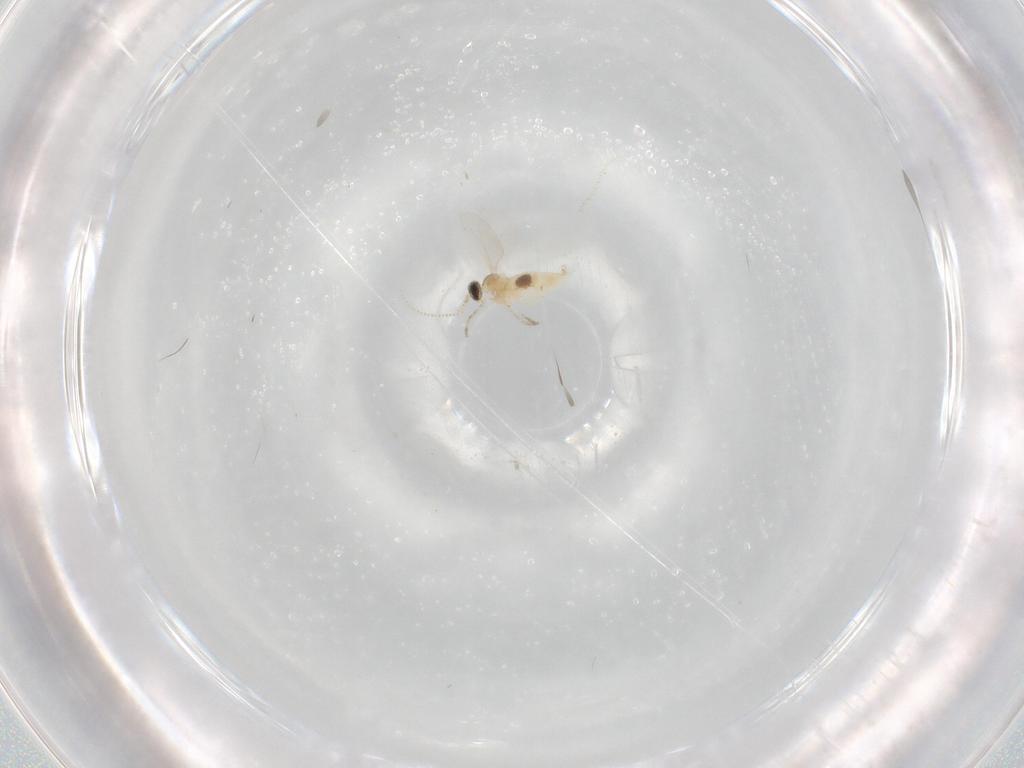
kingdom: Animalia
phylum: Arthropoda
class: Insecta
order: Diptera
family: Cecidomyiidae
